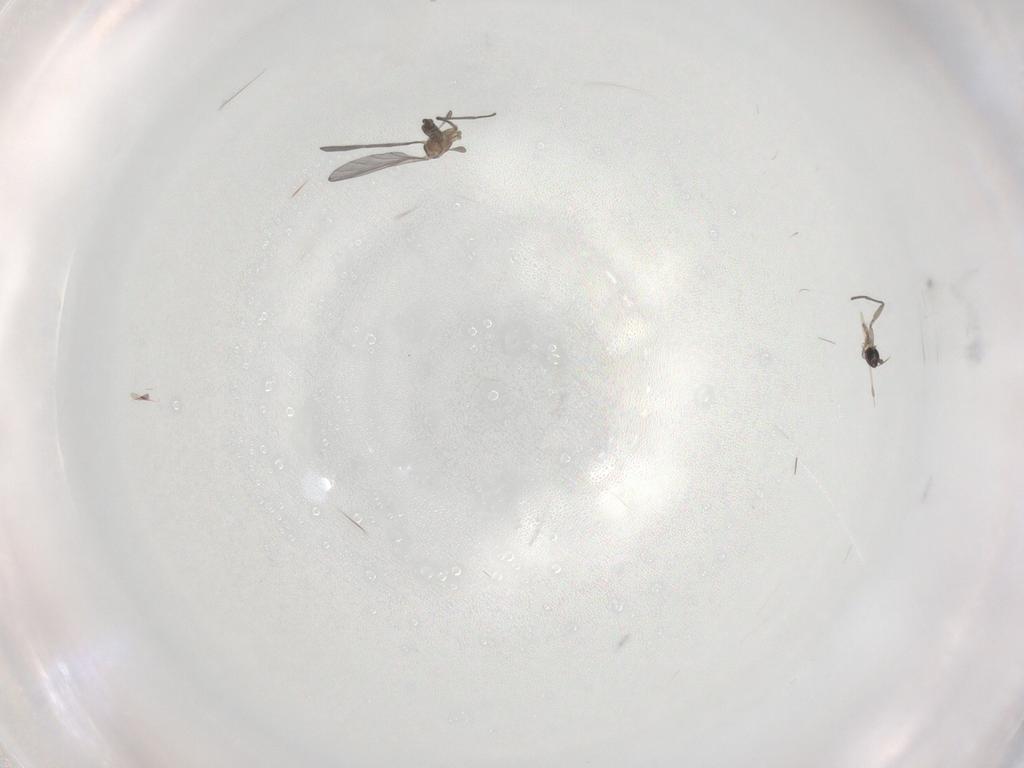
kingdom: Animalia
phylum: Arthropoda
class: Insecta
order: Diptera
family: Sciaridae
